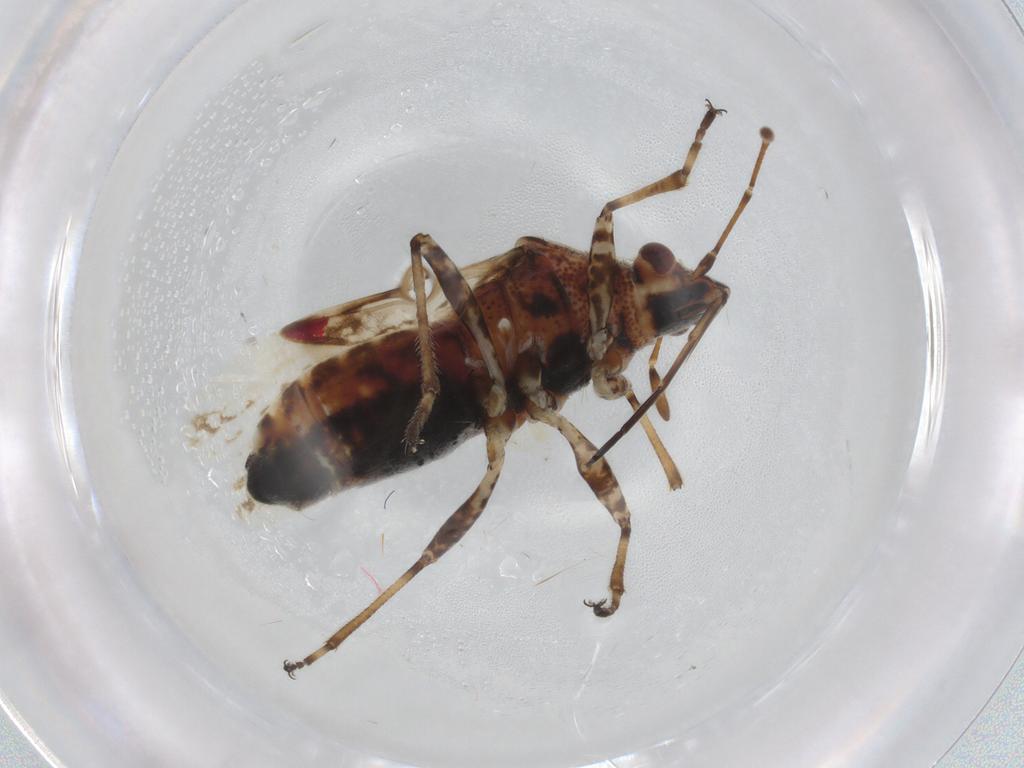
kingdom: Animalia
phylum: Arthropoda
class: Insecta
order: Hemiptera
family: Lygaeidae
